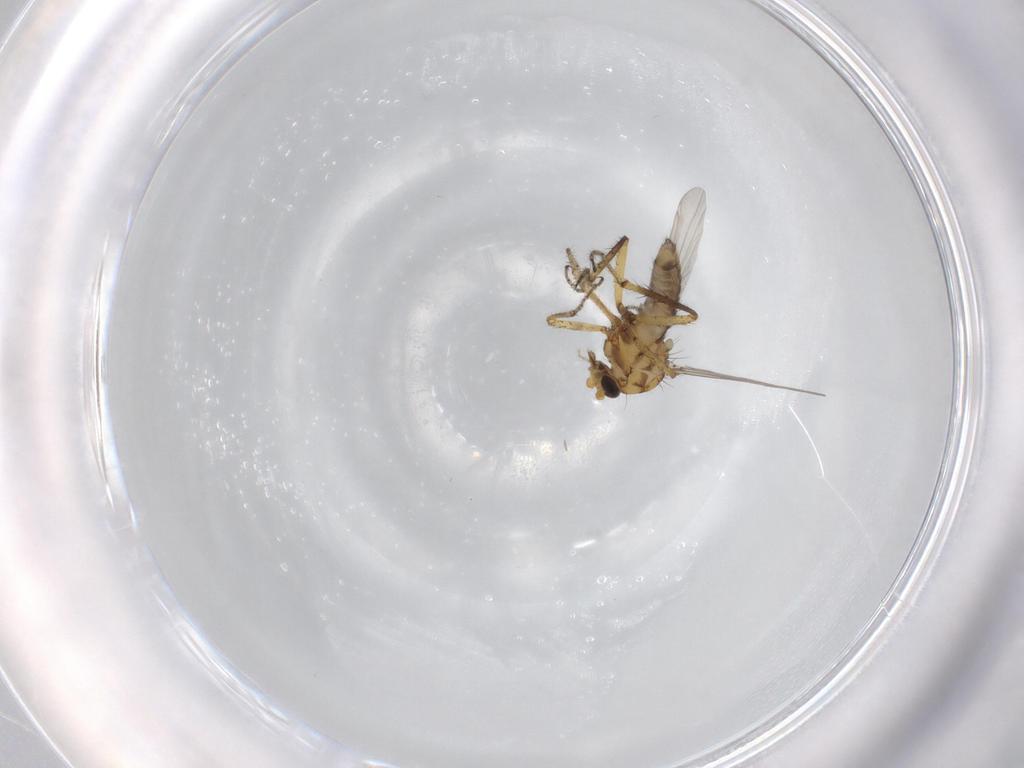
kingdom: Animalia
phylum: Arthropoda
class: Insecta
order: Diptera
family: Ceratopogonidae
